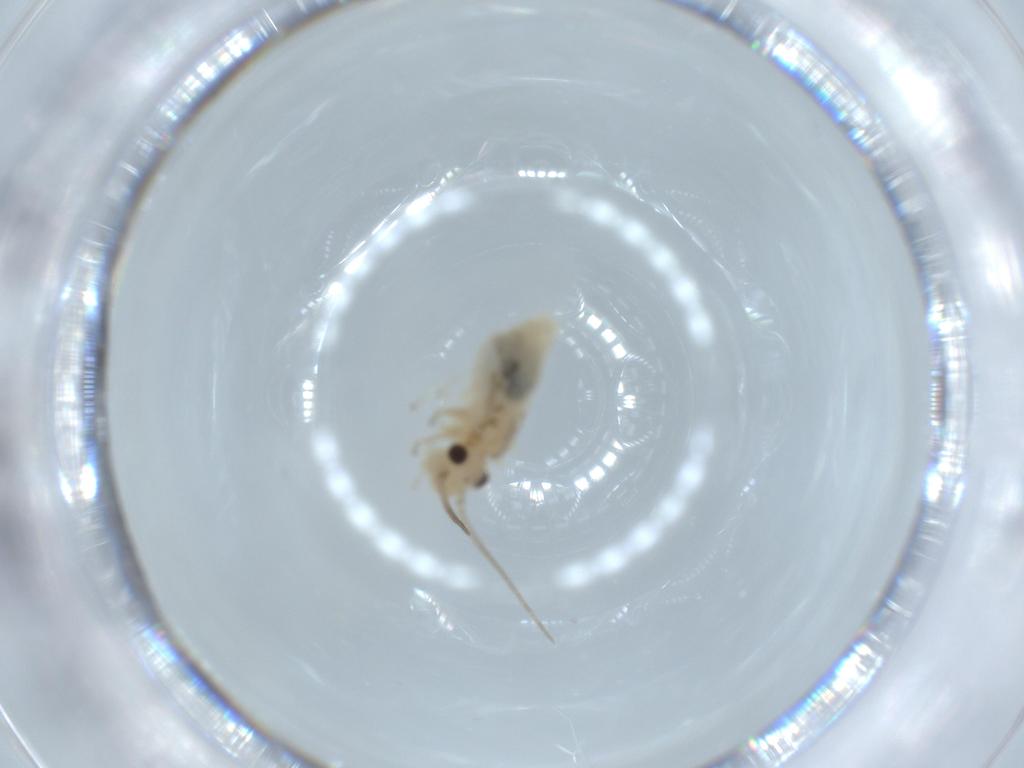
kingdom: Animalia
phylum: Arthropoda
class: Insecta
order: Psocodea
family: Caeciliusidae
